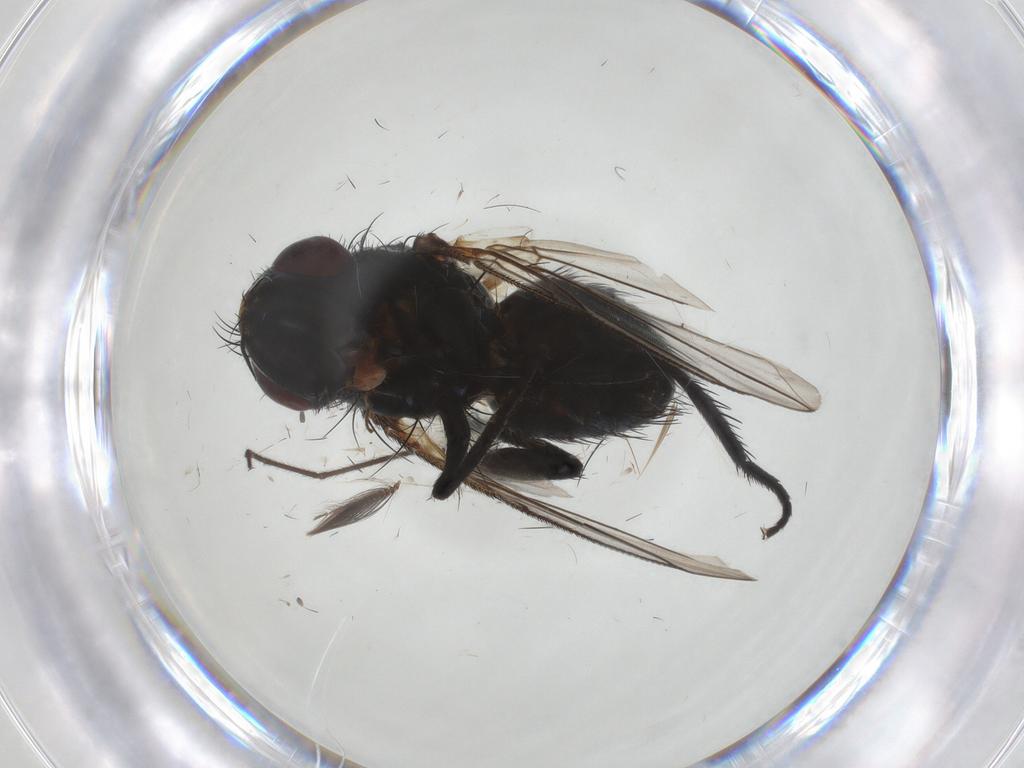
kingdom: Animalia
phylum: Arthropoda
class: Insecta
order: Diptera
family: Tachinidae
